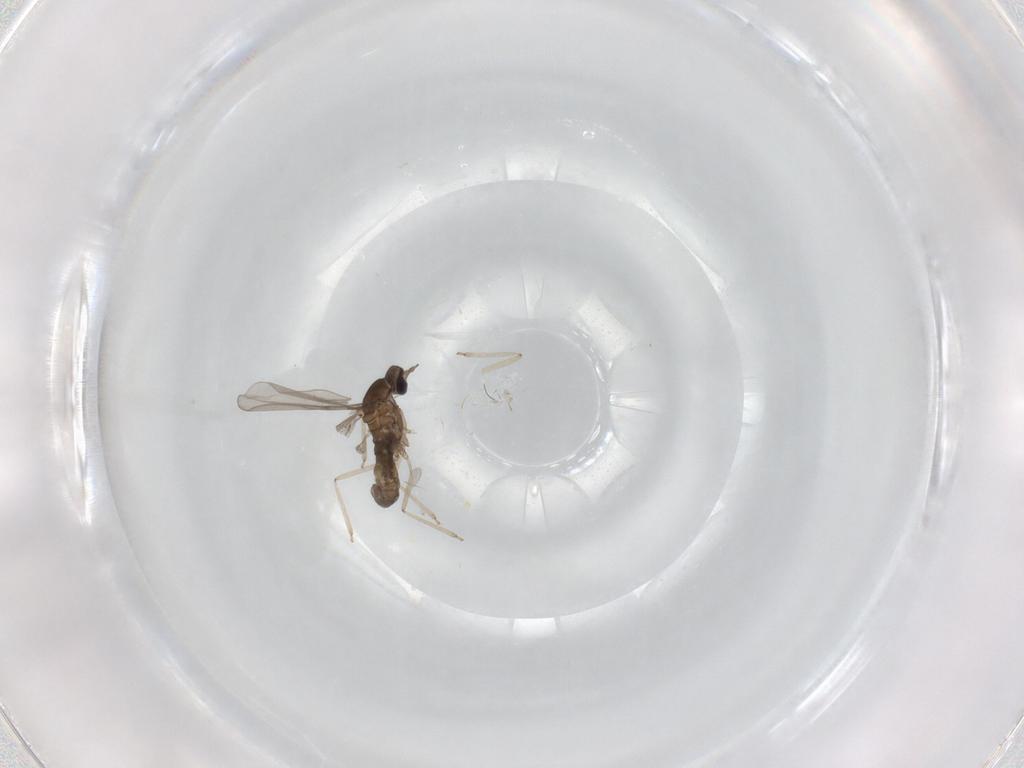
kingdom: Animalia
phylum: Arthropoda
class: Insecta
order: Diptera
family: Cecidomyiidae
